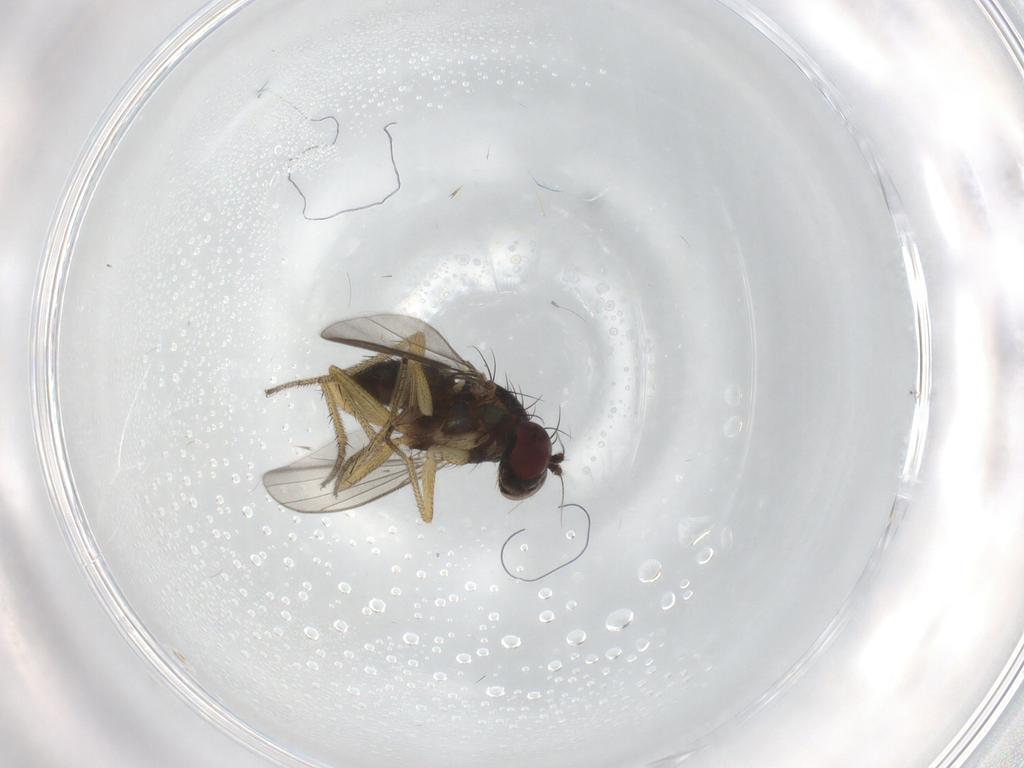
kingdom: Animalia
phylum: Arthropoda
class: Insecta
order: Diptera
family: Dolichopodidae
